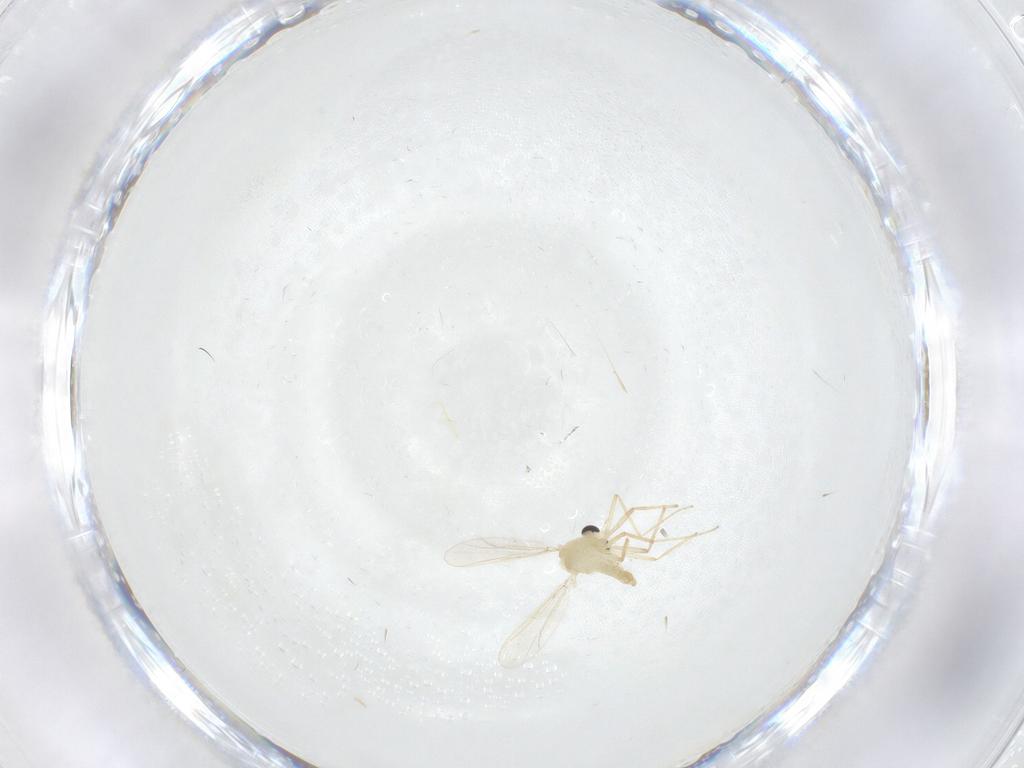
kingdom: Animalia
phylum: Arthropoda
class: Insecta
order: Diptera
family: Chironomidae
